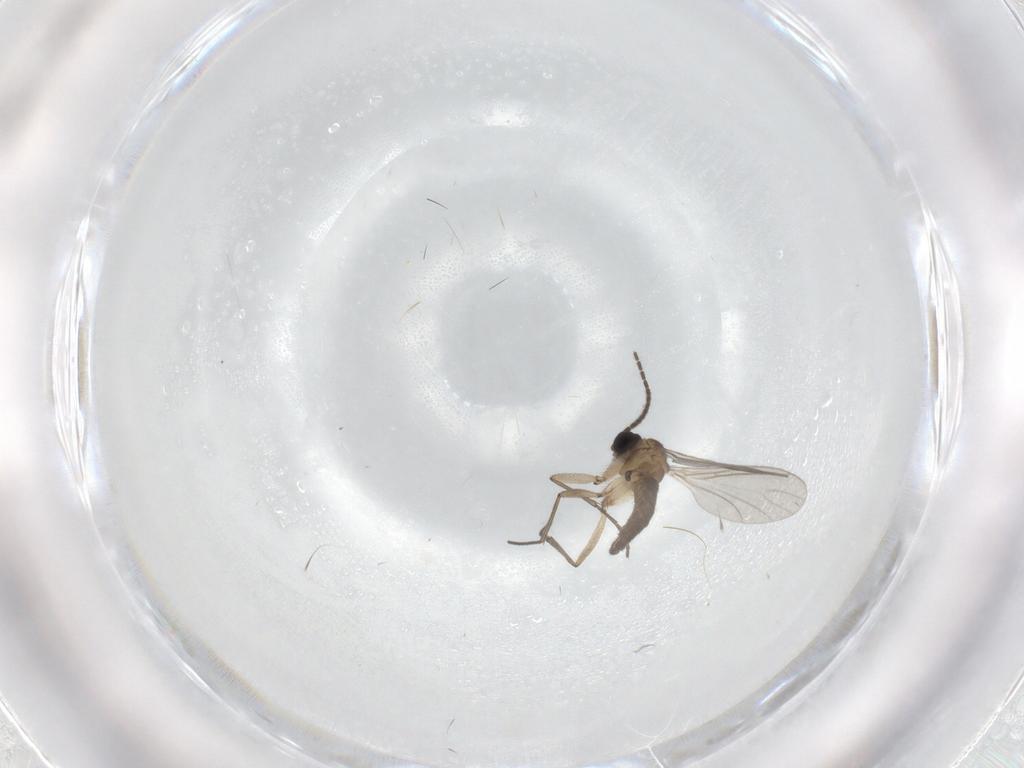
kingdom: Animalia
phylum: Arthropoda
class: Insecta
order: Diptera
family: Sciaridae
